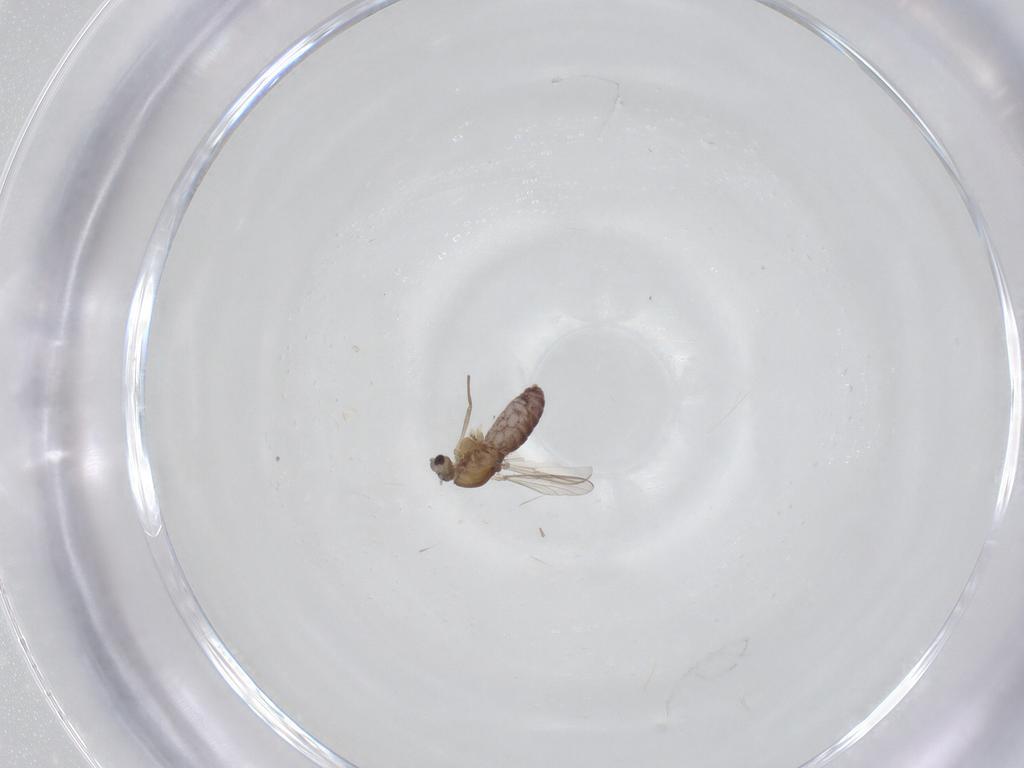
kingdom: Animalia
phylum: Arthropoda
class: Insecta
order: Diptera
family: Chironomidae
